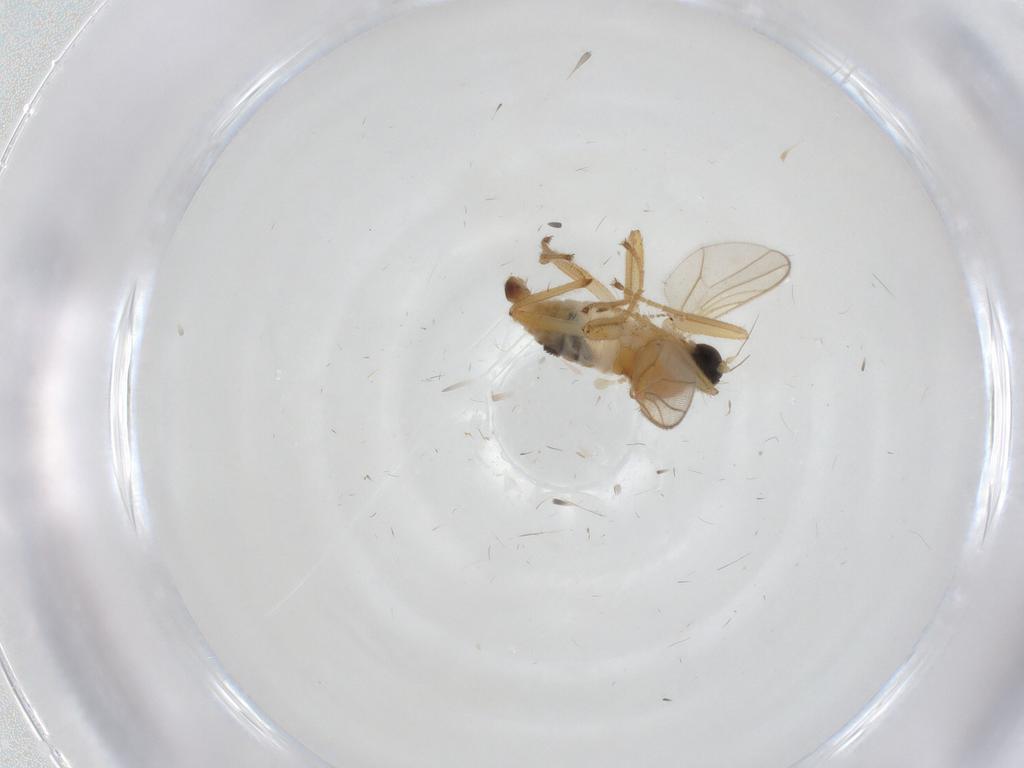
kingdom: Animalia
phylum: Arthropoda
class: Insecta
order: Diptera
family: Hybotidae
